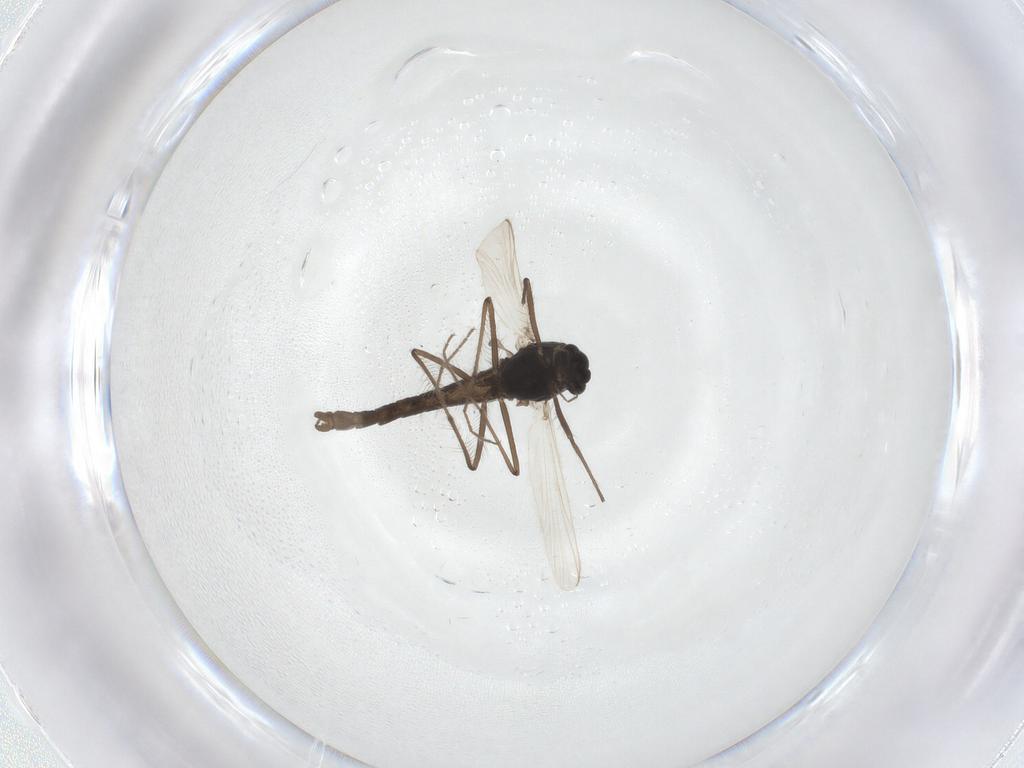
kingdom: Animalia
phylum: Arthropoda
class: Insecta
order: Diptera
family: Chironomidae
